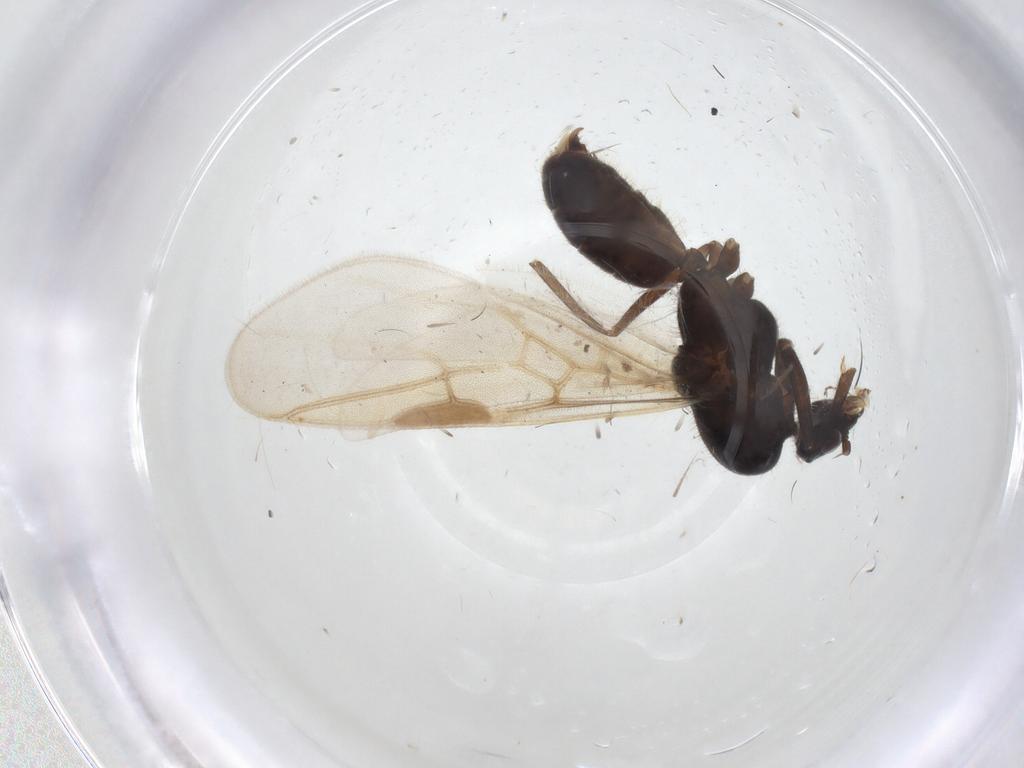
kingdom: Animalia
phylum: Arthropoda
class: Insecta
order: Hymenoptera
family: Formicidae
